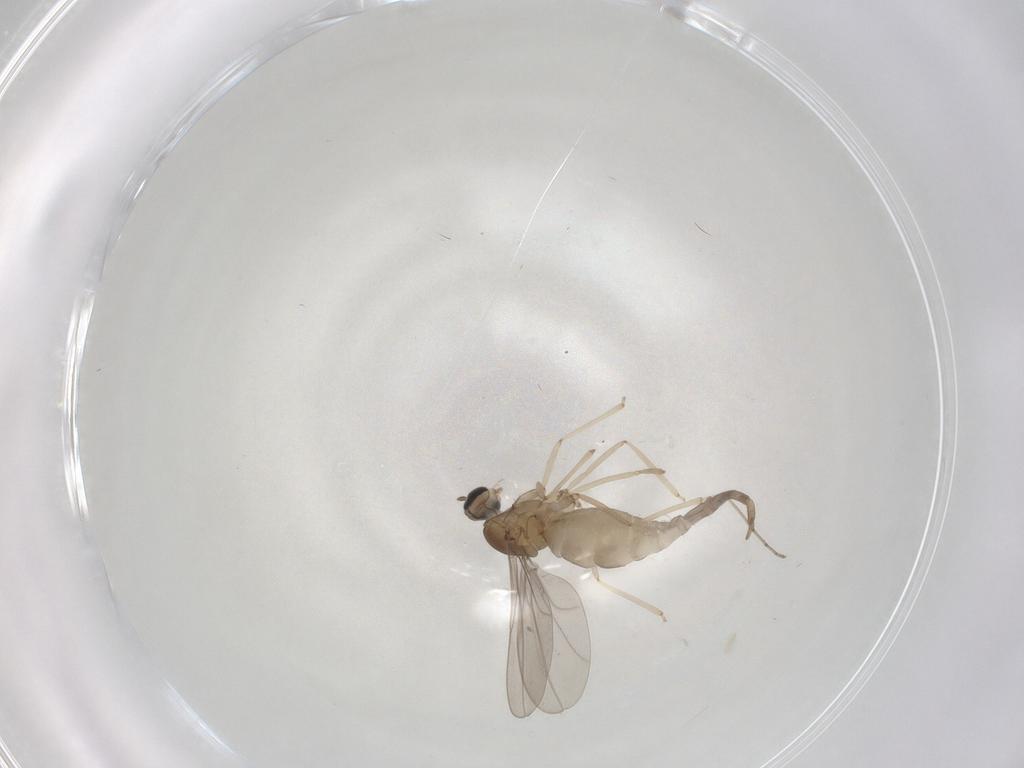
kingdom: Animalia
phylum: Arthropoda
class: Insecta
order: Diptera
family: Cecidomyiidae
